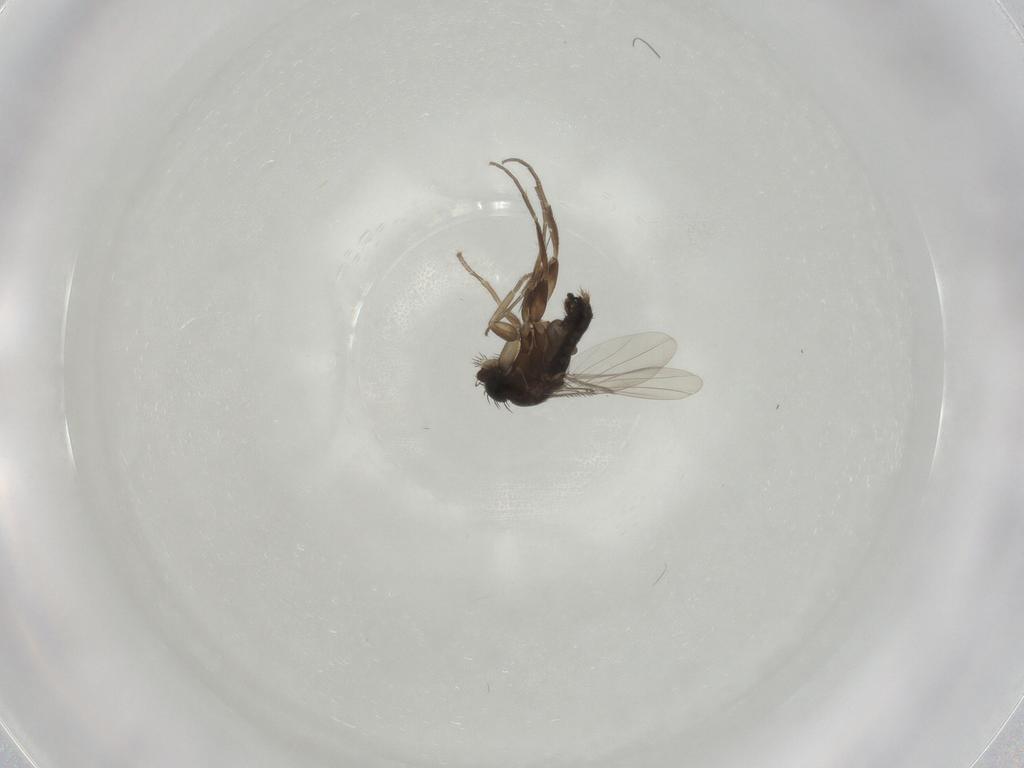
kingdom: Animalia
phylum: Arthropoda
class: Insecta
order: Diptera
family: Phoridae
